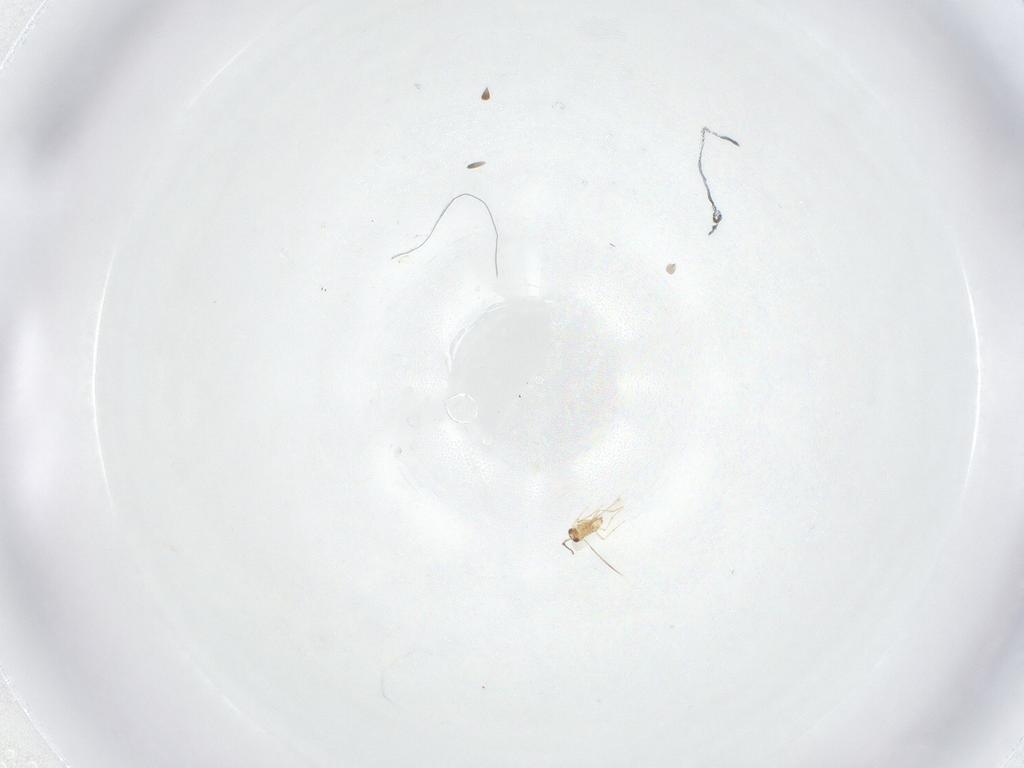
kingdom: Animalia
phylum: Arthropoda
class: Insecta
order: Hymenoptera
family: Mymaridae
